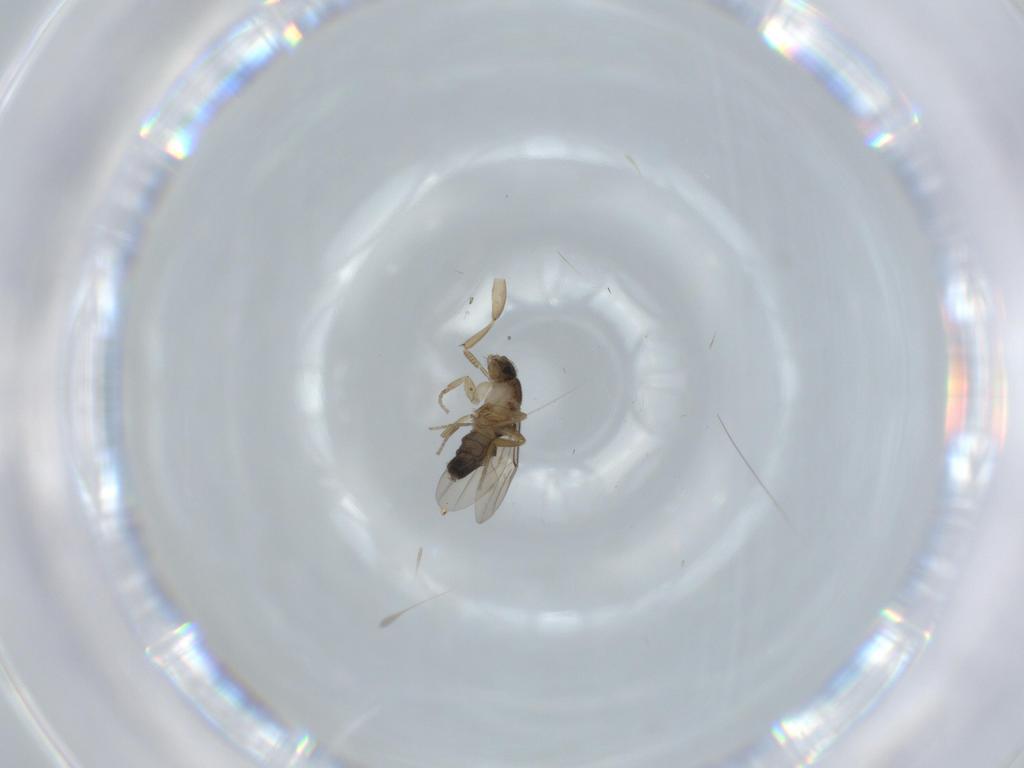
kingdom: Animalia
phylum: Arthropoda
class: Insecta
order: Diptera
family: Phoridae
